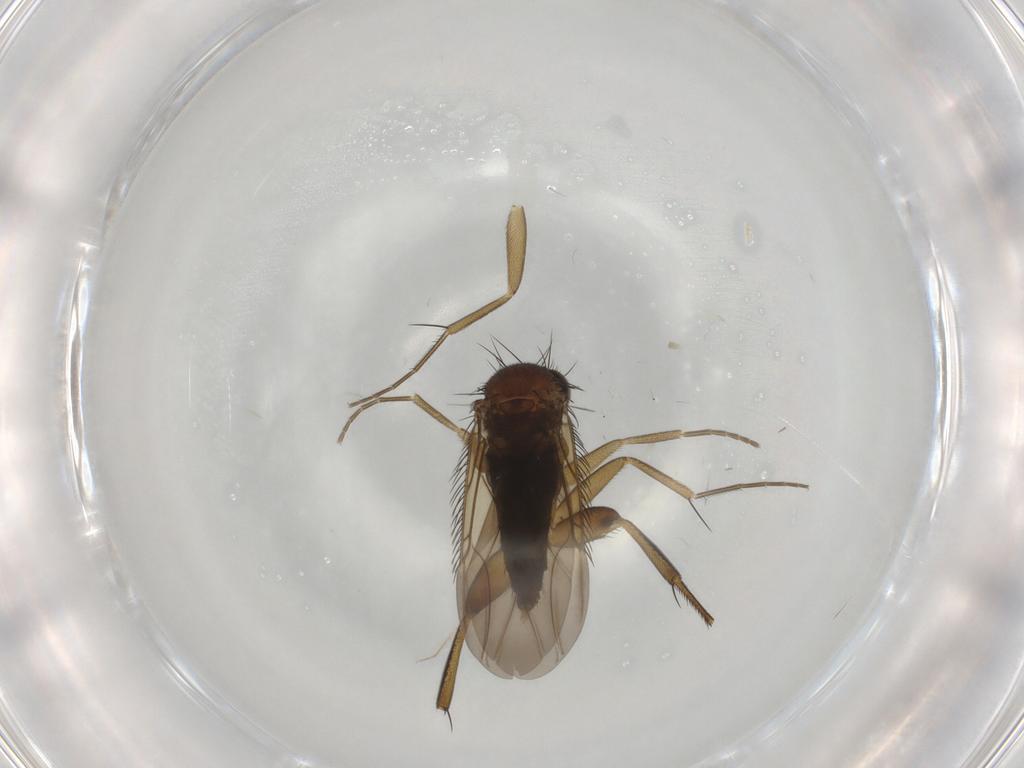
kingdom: Animalia
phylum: Arthropoda
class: Insecta
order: Diptera
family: Phoridae
